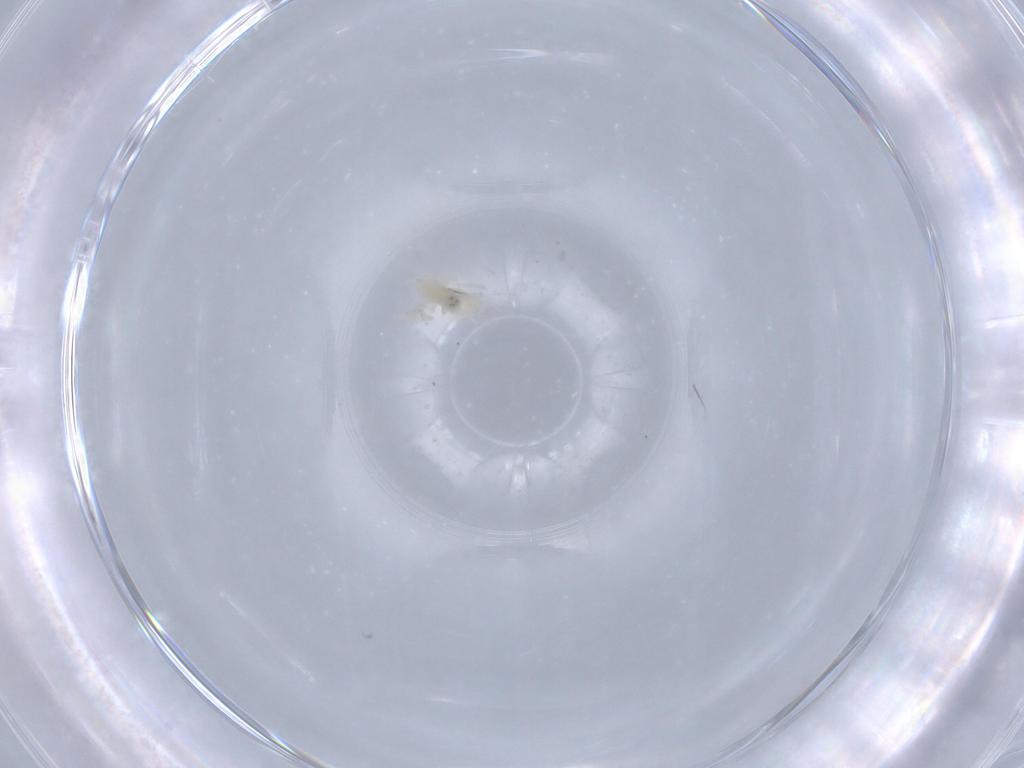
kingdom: Animalia
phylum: Arthropoda
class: Insecta
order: Diptera
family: Cecidomyiidae
